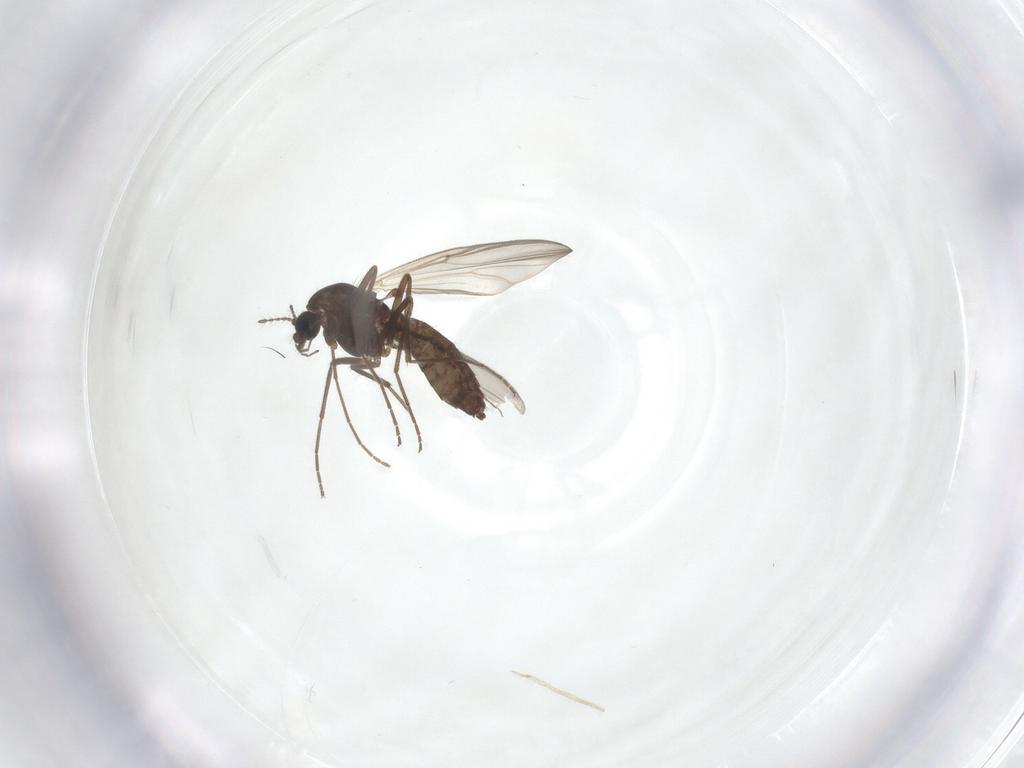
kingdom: Animalia
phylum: Arthropoda
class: Insecta
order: Diptera
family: Chironomidae
